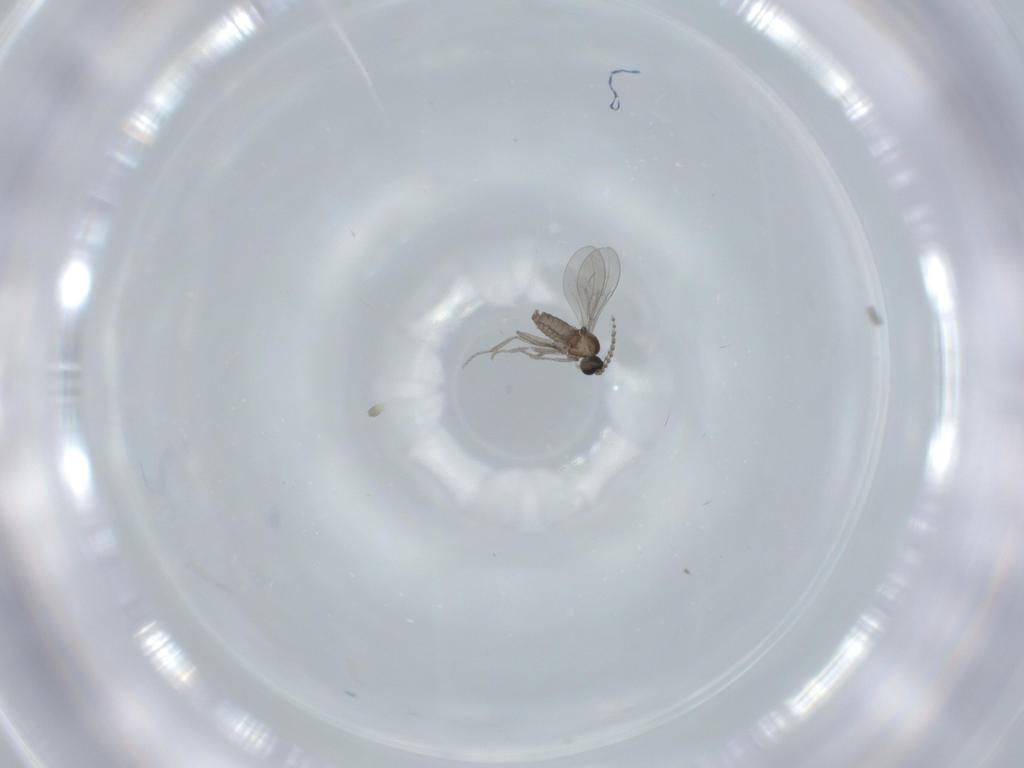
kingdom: Animalia
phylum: Arthropoda
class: Insecta
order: Diptera
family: Cecidomyiidae
